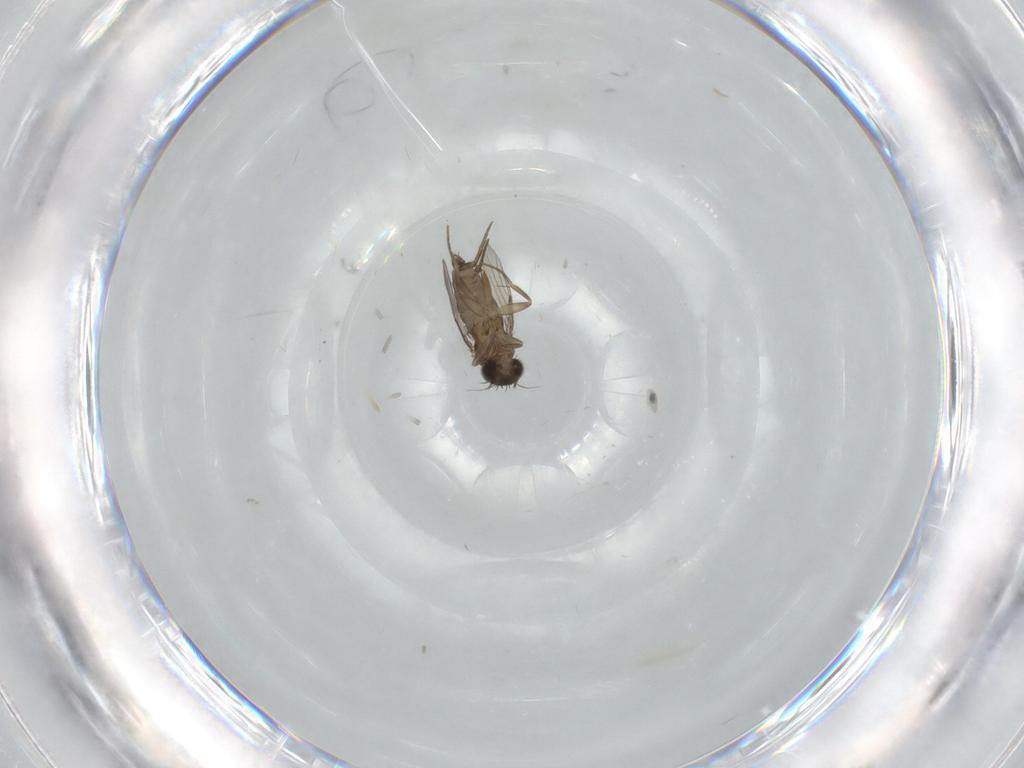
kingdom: Animalia
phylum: Arthropoda
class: Insecta
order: Diptera
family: Phoridae
